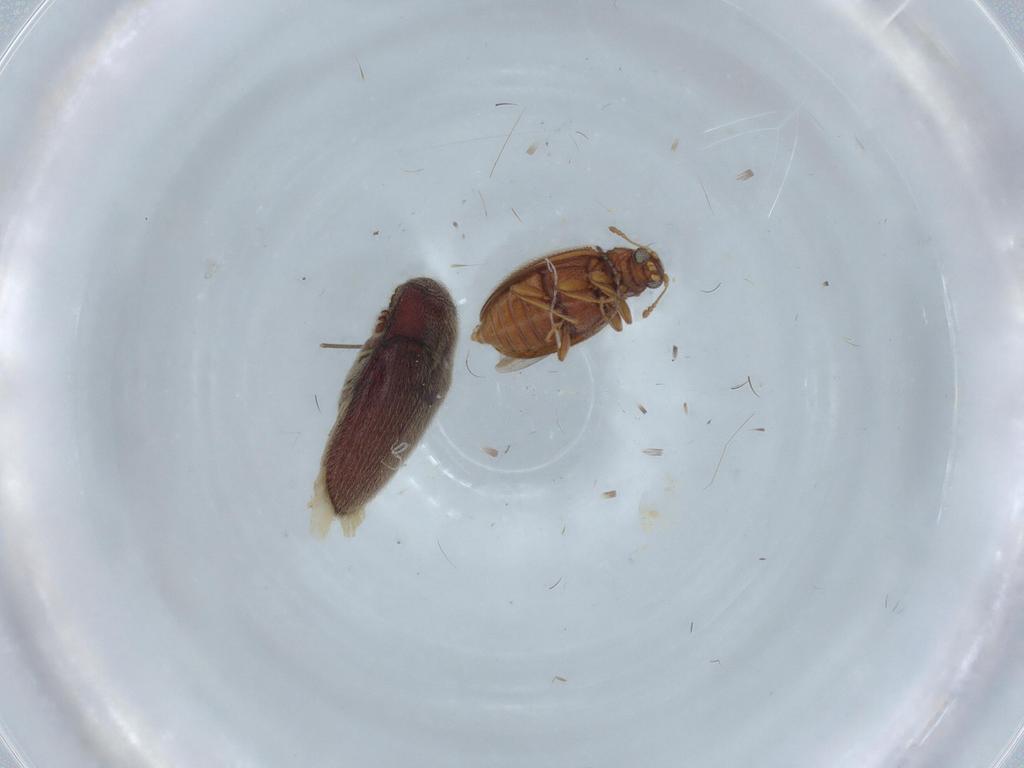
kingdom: Animalia
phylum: Arthropoda
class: Insecta
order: Coleoptera
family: Latridiidae
